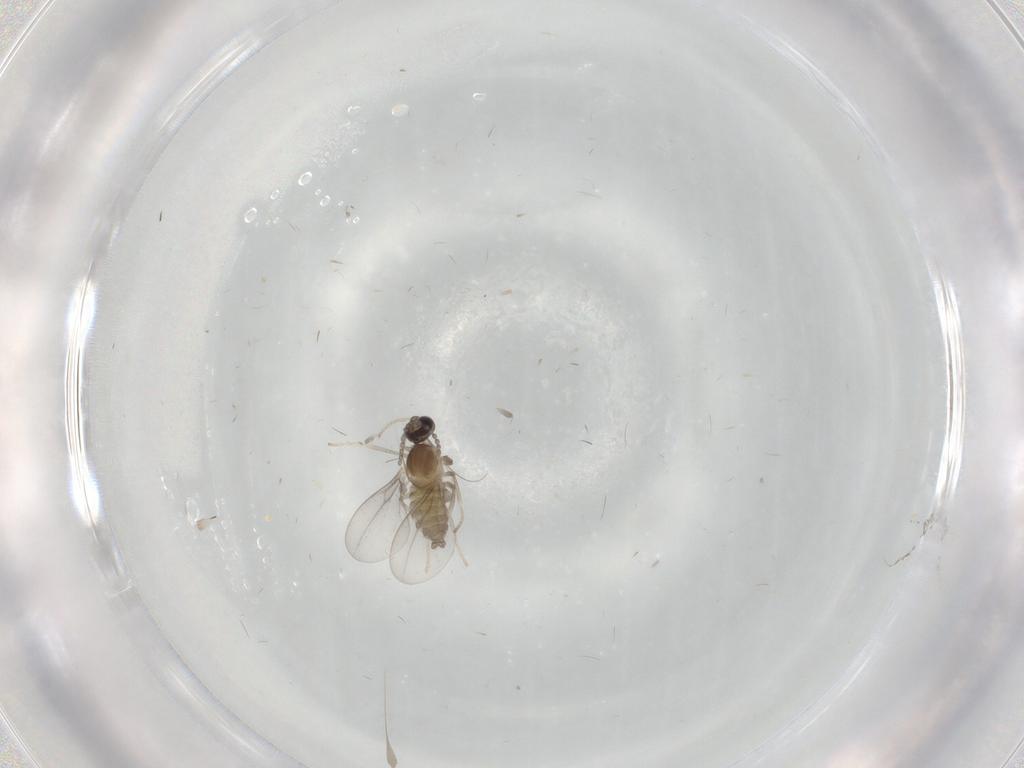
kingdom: Animalia
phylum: Arthropoda
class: Insecta
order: Diptera
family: Cecidomyiidae
